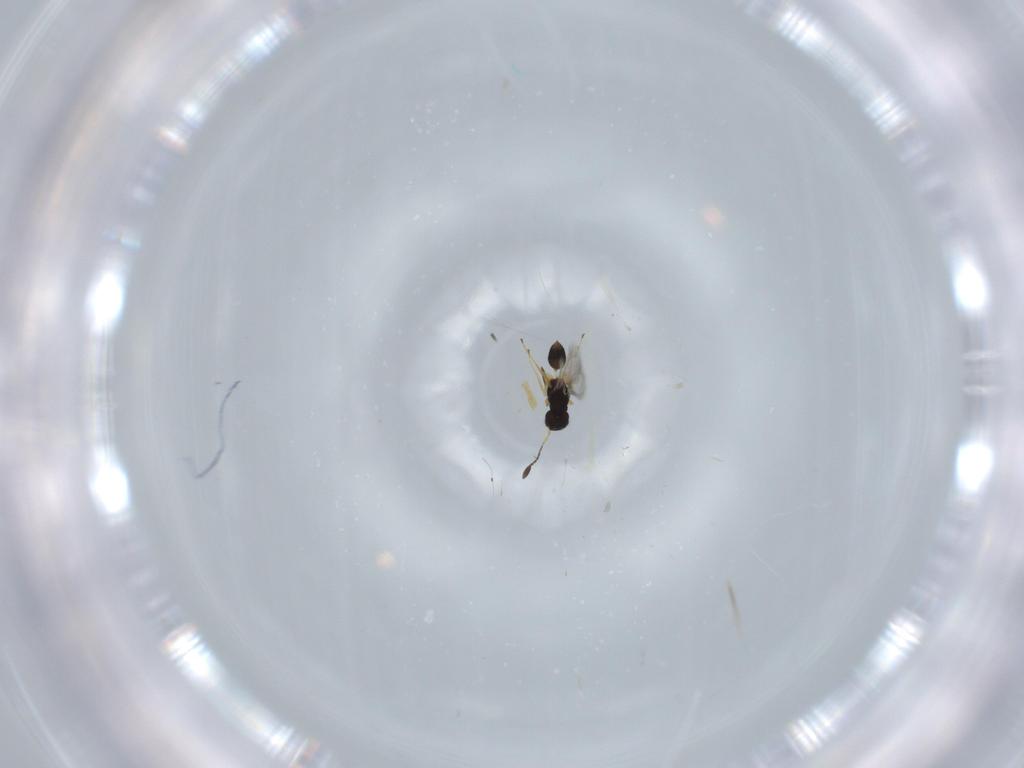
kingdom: Animalia
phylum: Arthropoda
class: Insecta
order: Hymenoptera
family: Mymaridae
